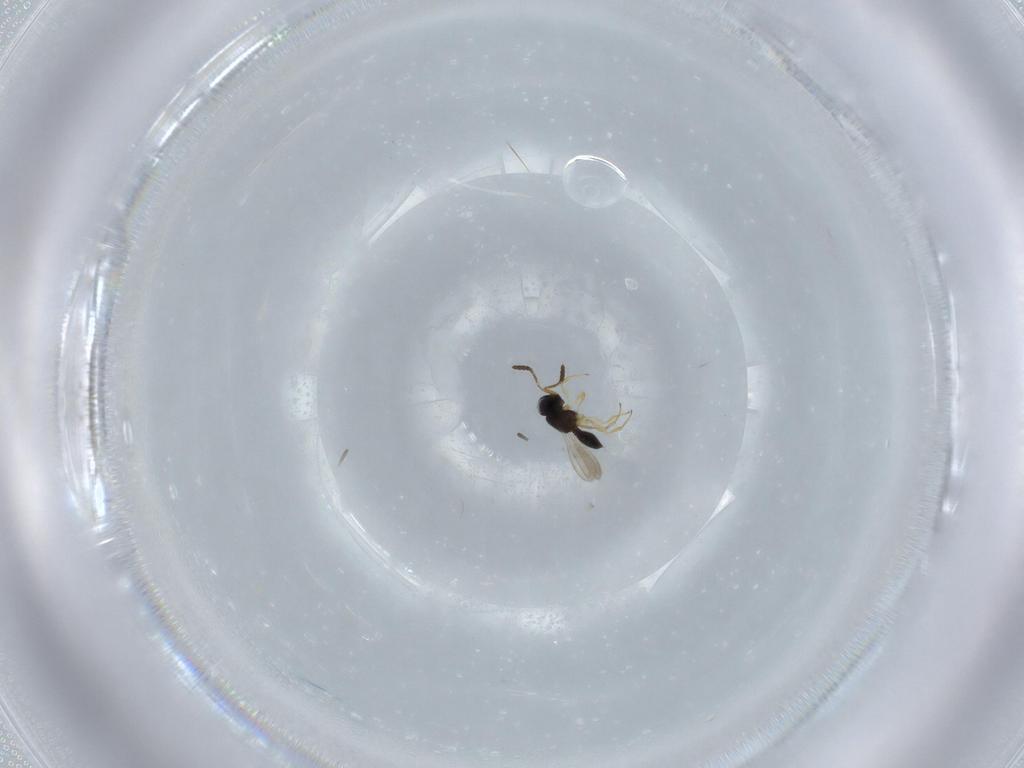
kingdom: Animalia
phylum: Arthropoda
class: Insecta
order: Hymenoptera
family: Scelionidae
